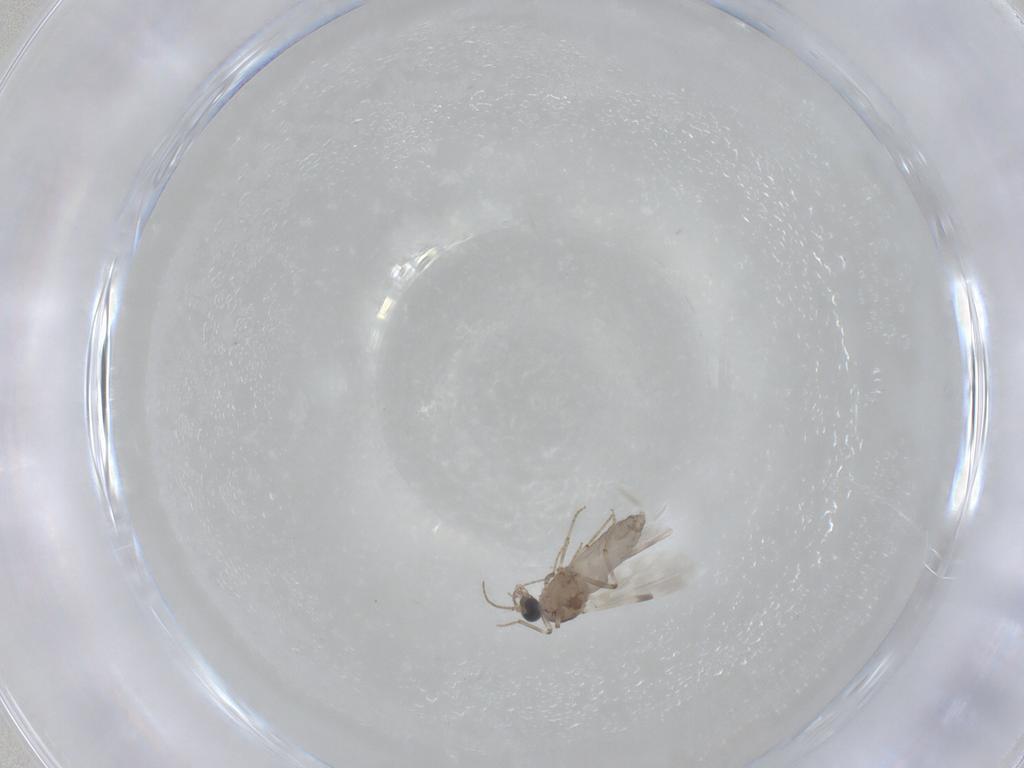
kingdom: Animalia
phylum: Arthropoda
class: Insecta
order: Diptera
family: Ceratopogonidae
